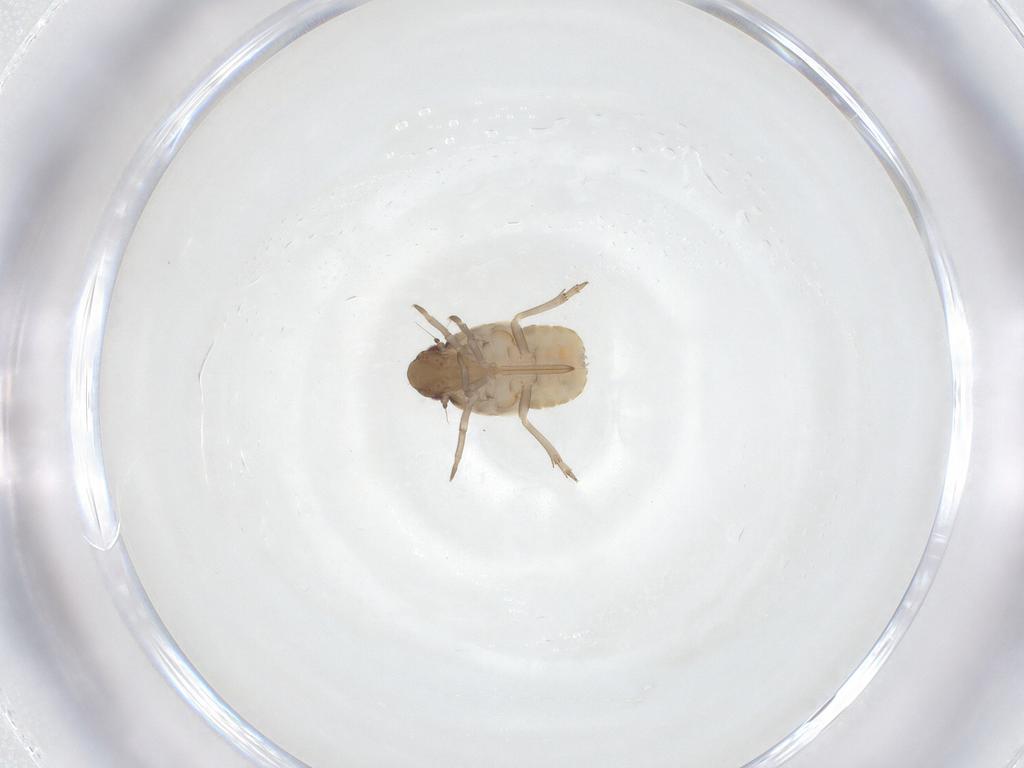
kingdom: Animalia
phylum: Arthropoda
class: Insecta
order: Hemiptera
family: Flatidae
